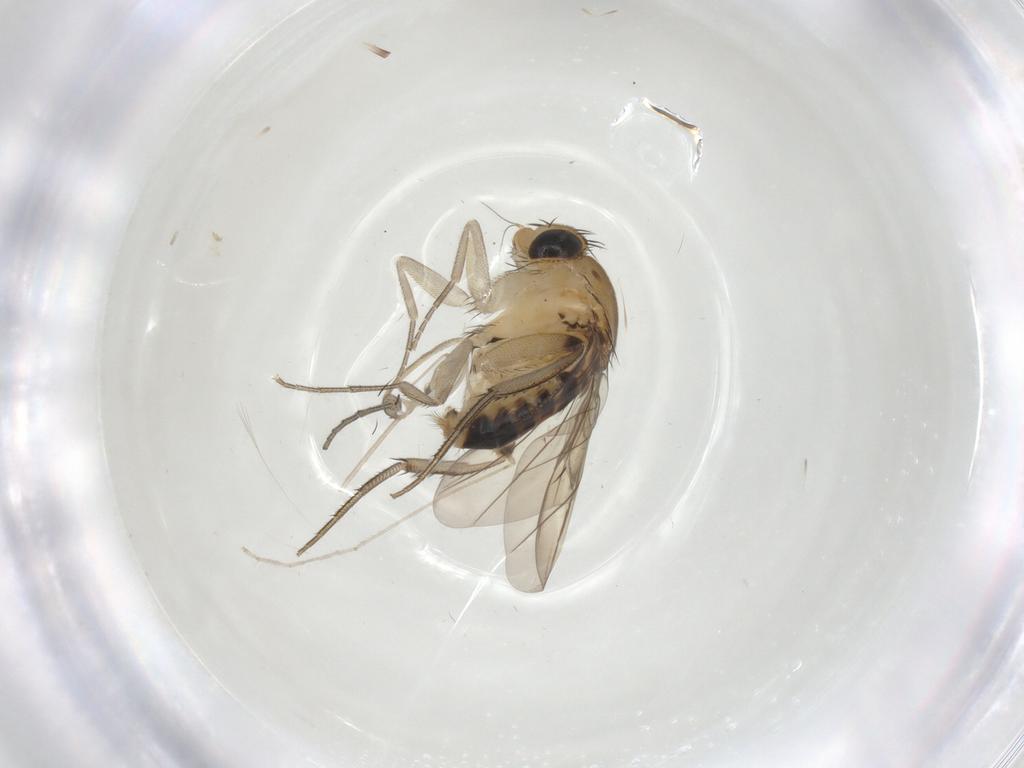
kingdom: Animalia
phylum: Arthropoda
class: Insecta
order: Diptera
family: Phoridae
